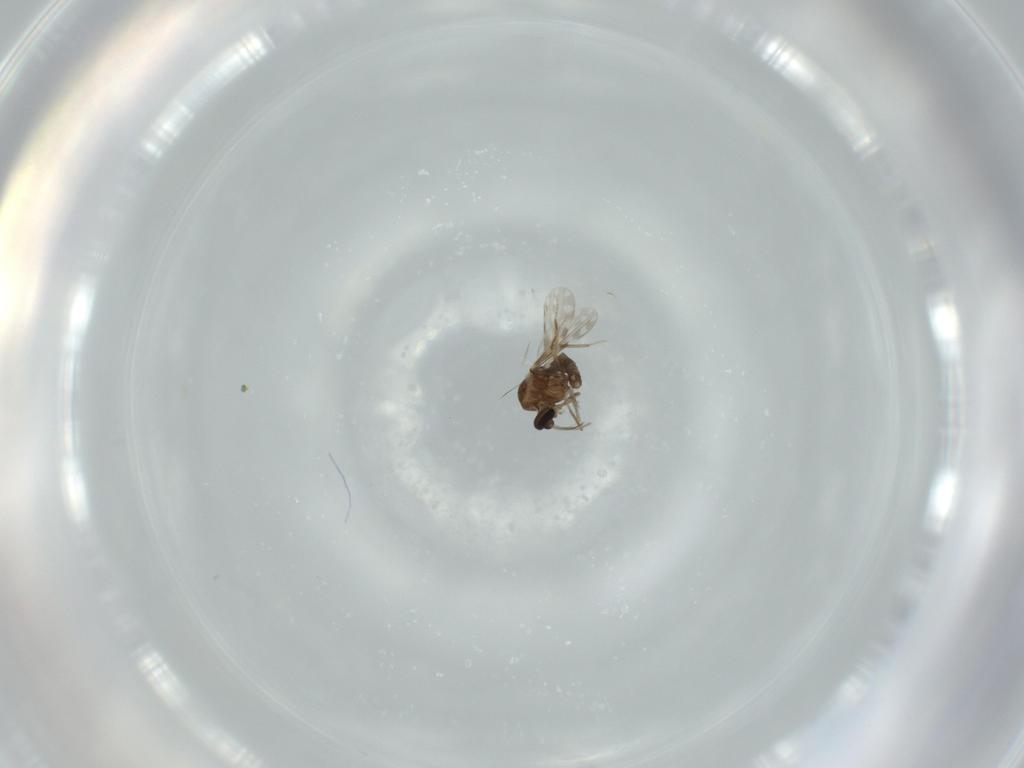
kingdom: Animalia
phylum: Arthropoda
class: Insecta
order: Diptera
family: Ceratopogonidae
